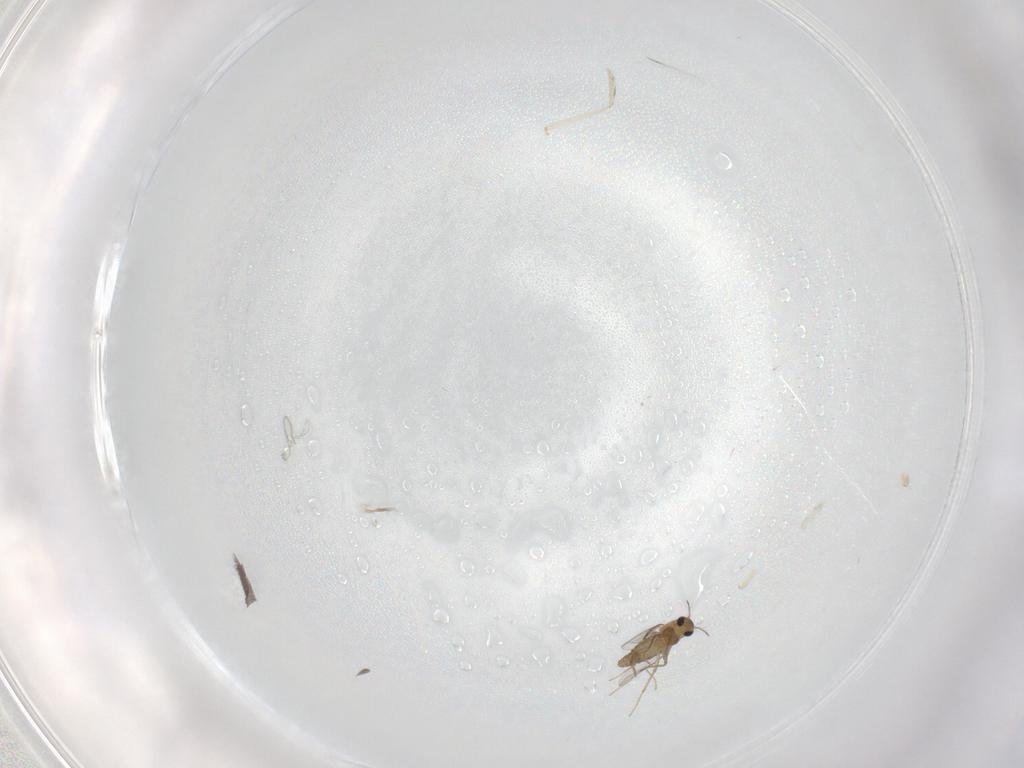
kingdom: Animalia
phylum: Arthropoda
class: Insecta
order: Diptera
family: Cecidomyiidae
